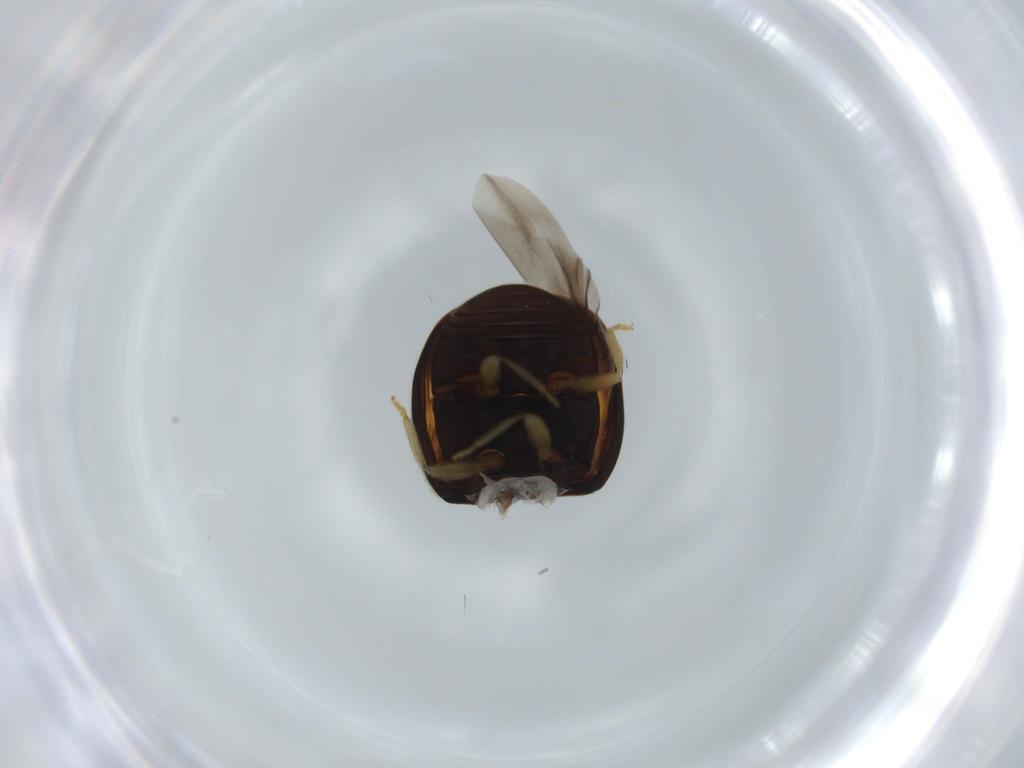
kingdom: Animalia
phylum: Arthropoda
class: Insecta
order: Coleoptera
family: Coccinellidae
